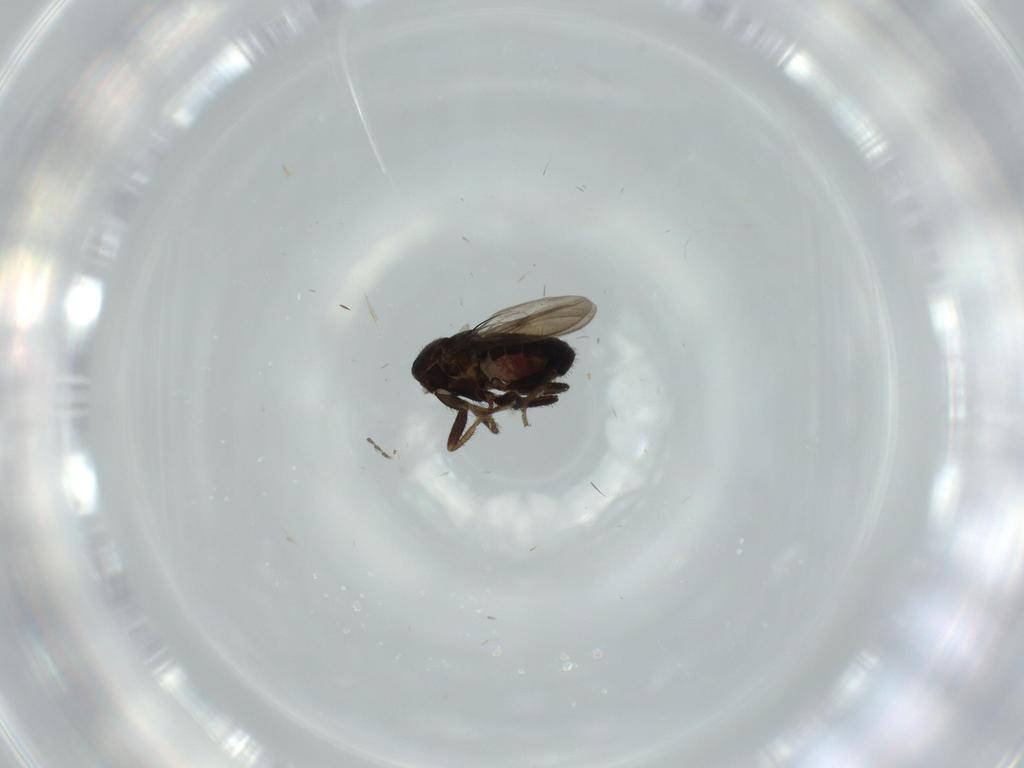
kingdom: Animalia
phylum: Arthropoda
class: Insecta
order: Diptera
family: Sphaeroceridae
